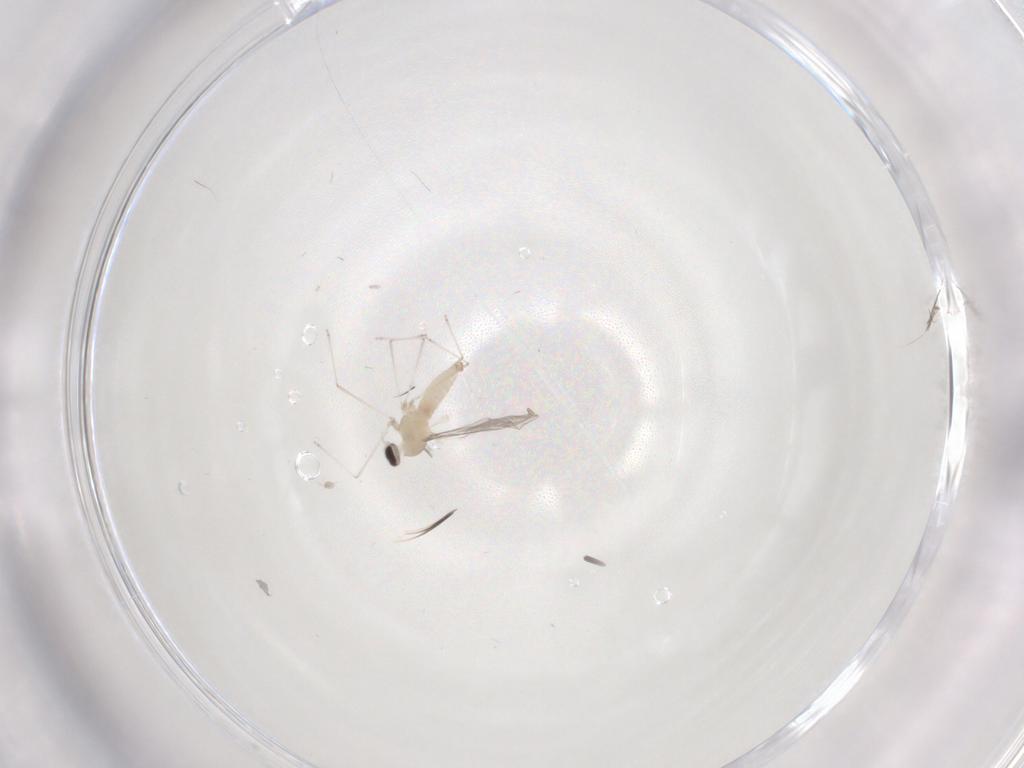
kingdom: Animalia
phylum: Arthropoda
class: Insecta
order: Diptera
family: Cecidomyiidae
